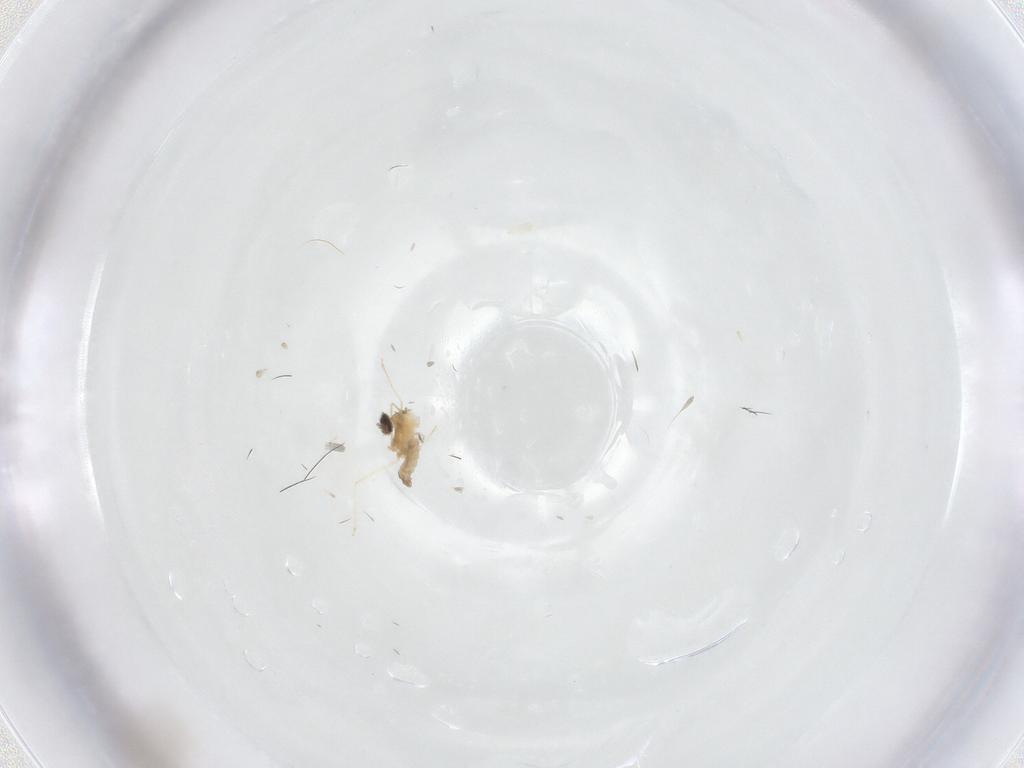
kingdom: Animalia
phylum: Arthropoda
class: Insecta
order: Diptera
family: Cecidomyiidae
